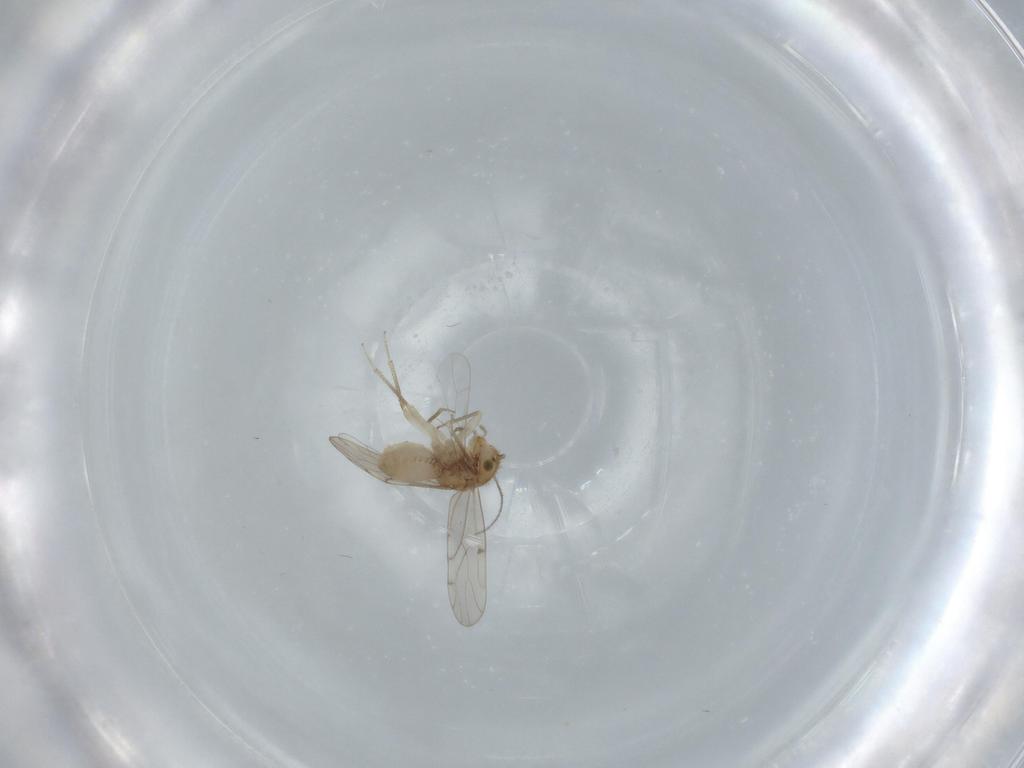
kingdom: Animalia
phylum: Arthropoda
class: Insecta
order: Psocodea
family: Ectopsocidae
